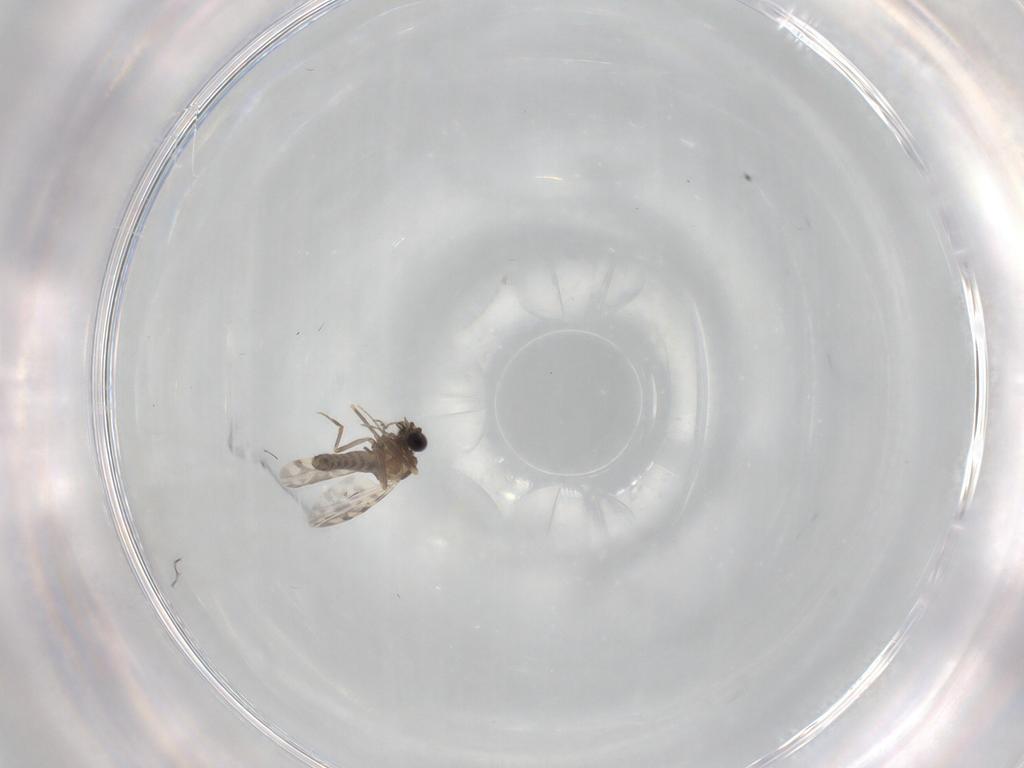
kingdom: Animalia
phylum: Arthropoda
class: Insecta
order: Diptera
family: Ceratopogonidae
